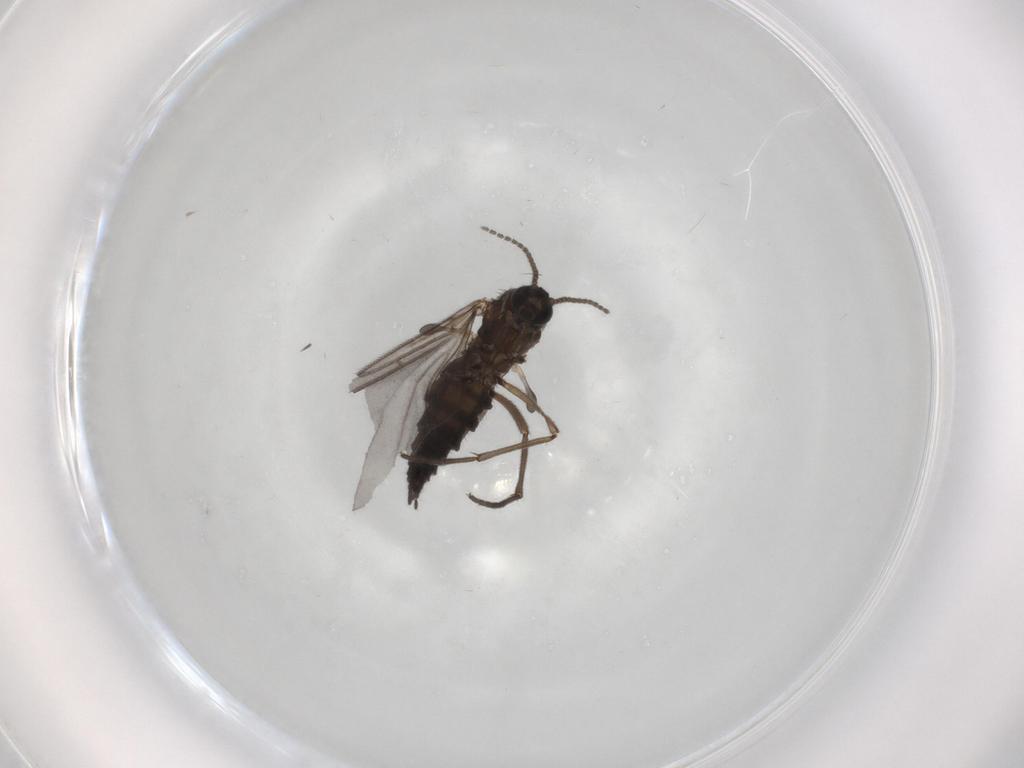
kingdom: Animalia
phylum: Arthropoda
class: Insecta
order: Diptera
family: Sciaridae
